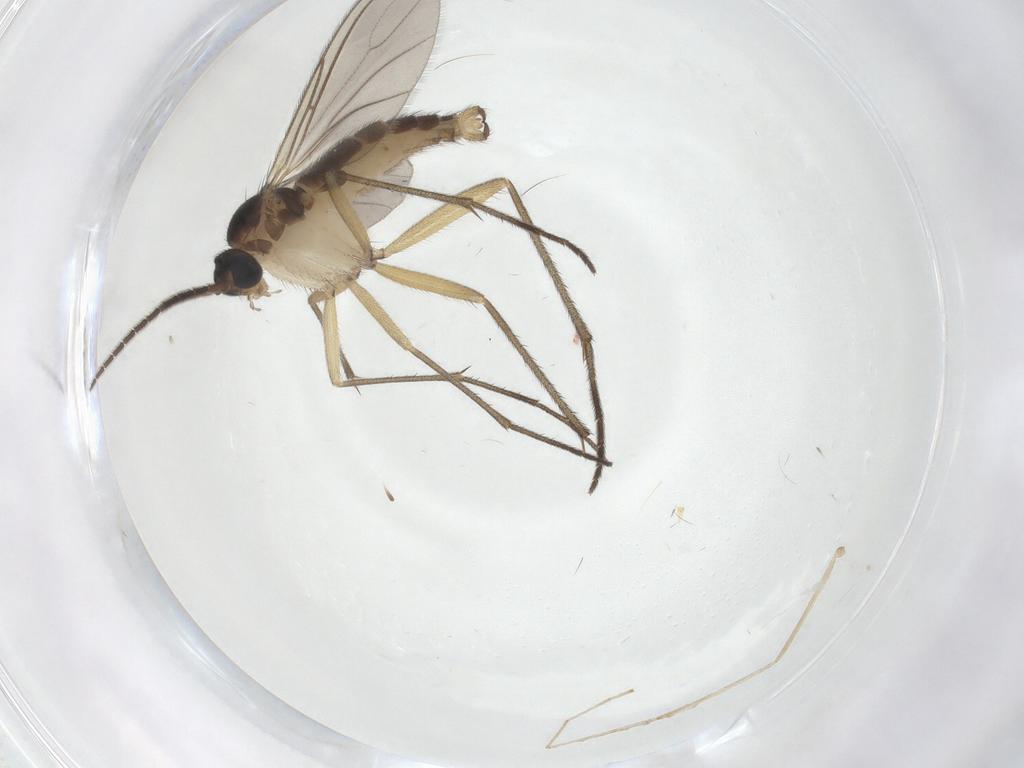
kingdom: Animalia
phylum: Arthropoda
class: Insecta
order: Diptera
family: Sciaridae
